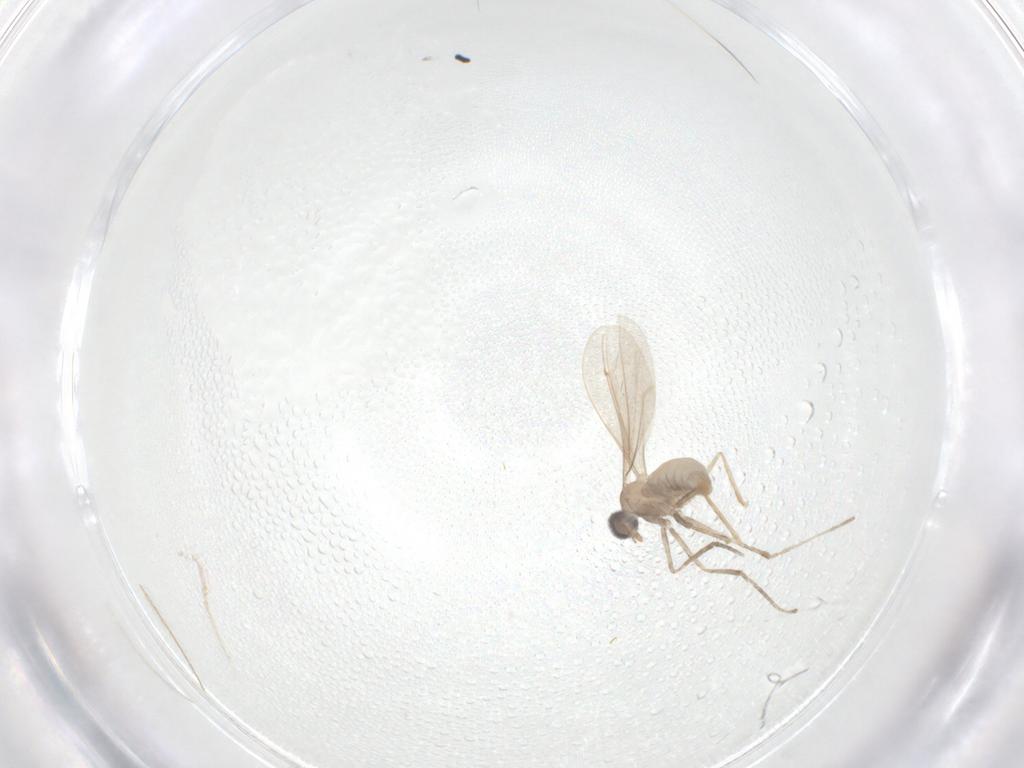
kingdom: Animalia
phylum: Arthropoda
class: Insecta
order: Diptera
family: Cecidomyiidae
